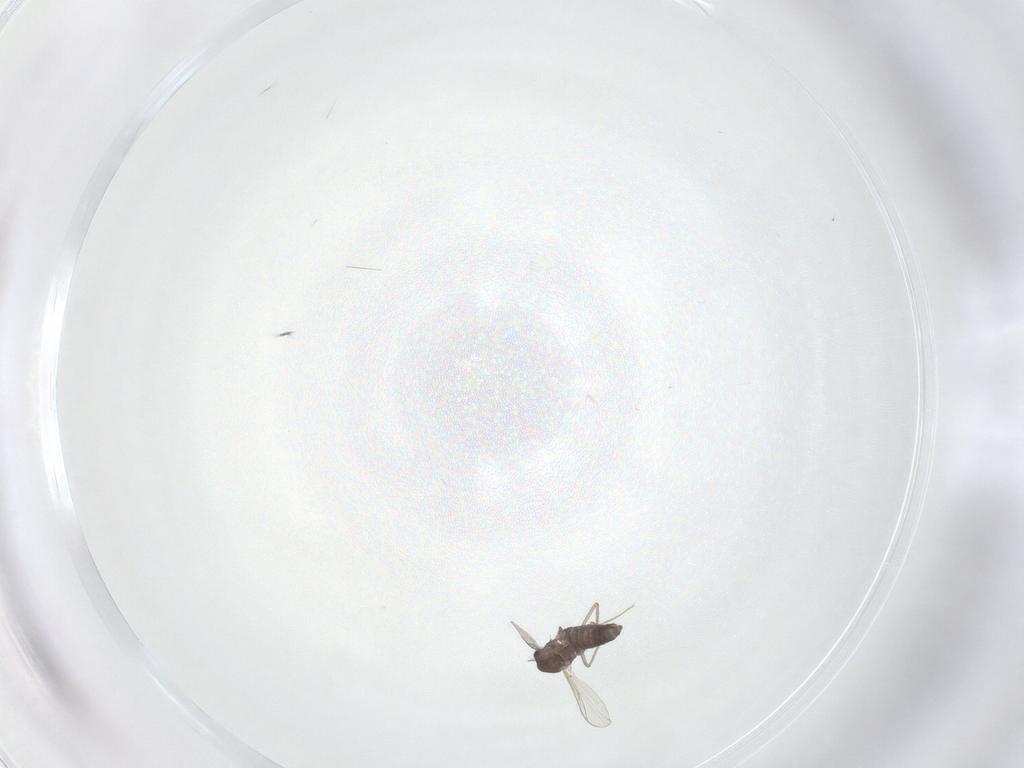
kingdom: Animalia
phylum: Arthropoda
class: Insecta
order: Diptera
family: Chironomidae
